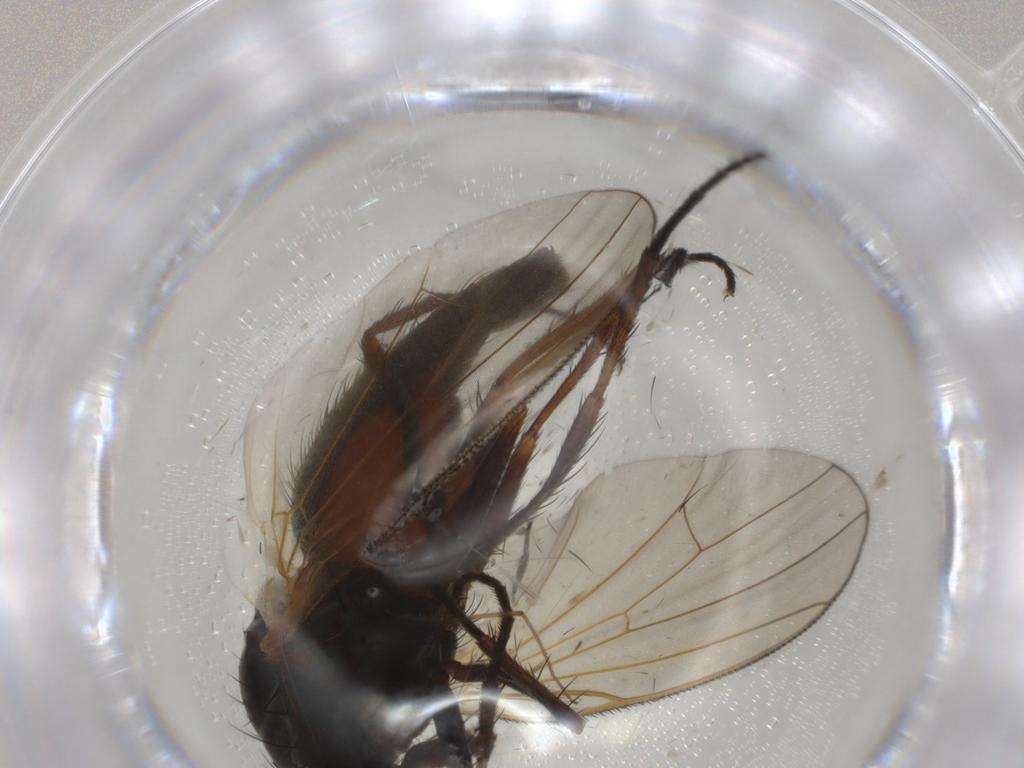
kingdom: Animalia
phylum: Arthropoda
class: Insecta
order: Diptera
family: Anthomyiidae
